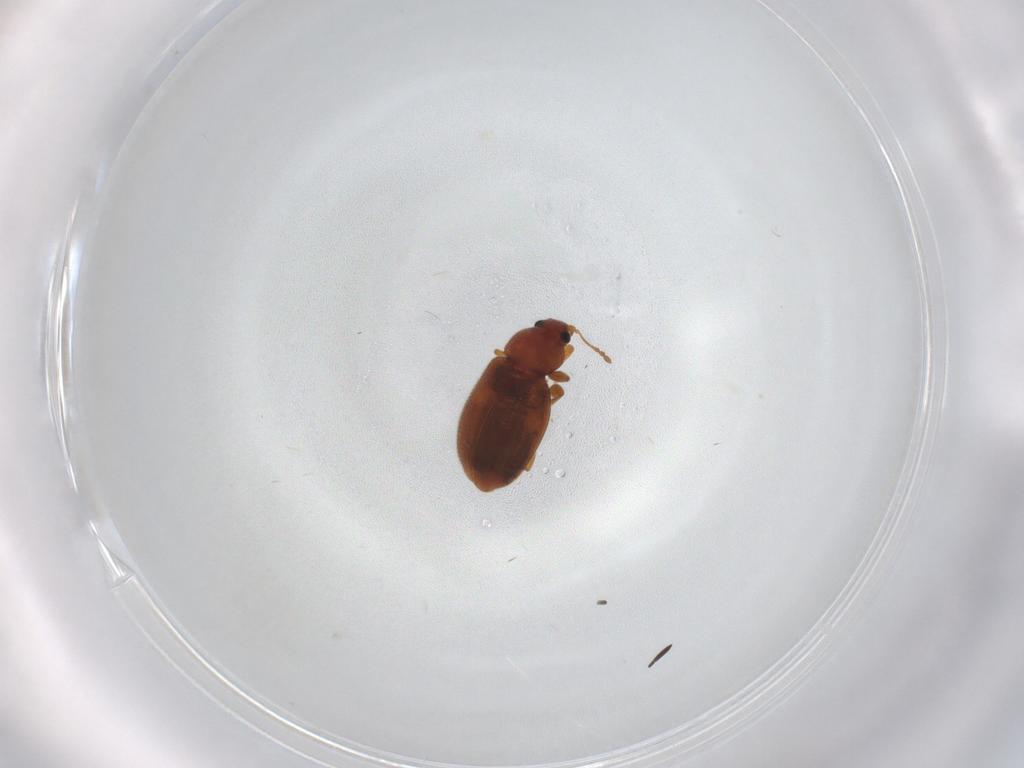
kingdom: Animalia
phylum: Arthropoda
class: Insecta
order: Coleoptera
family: Latridiidae
